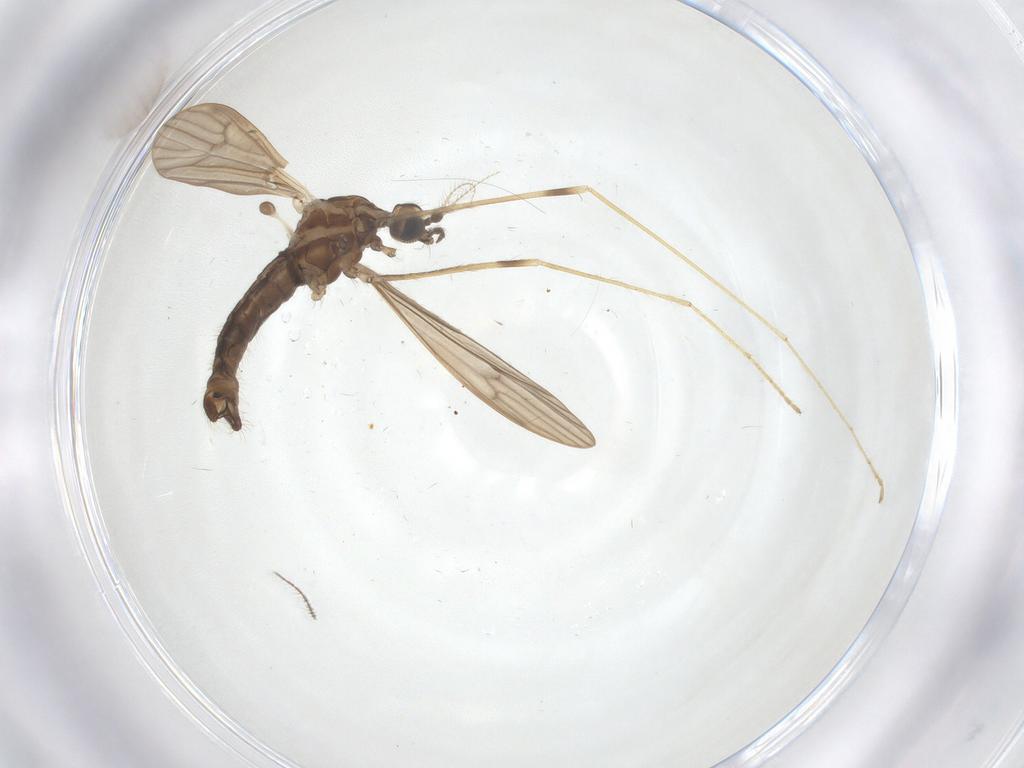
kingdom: Animalia
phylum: Arthropoda
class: Insecta
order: Diptera
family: Limoniidae
